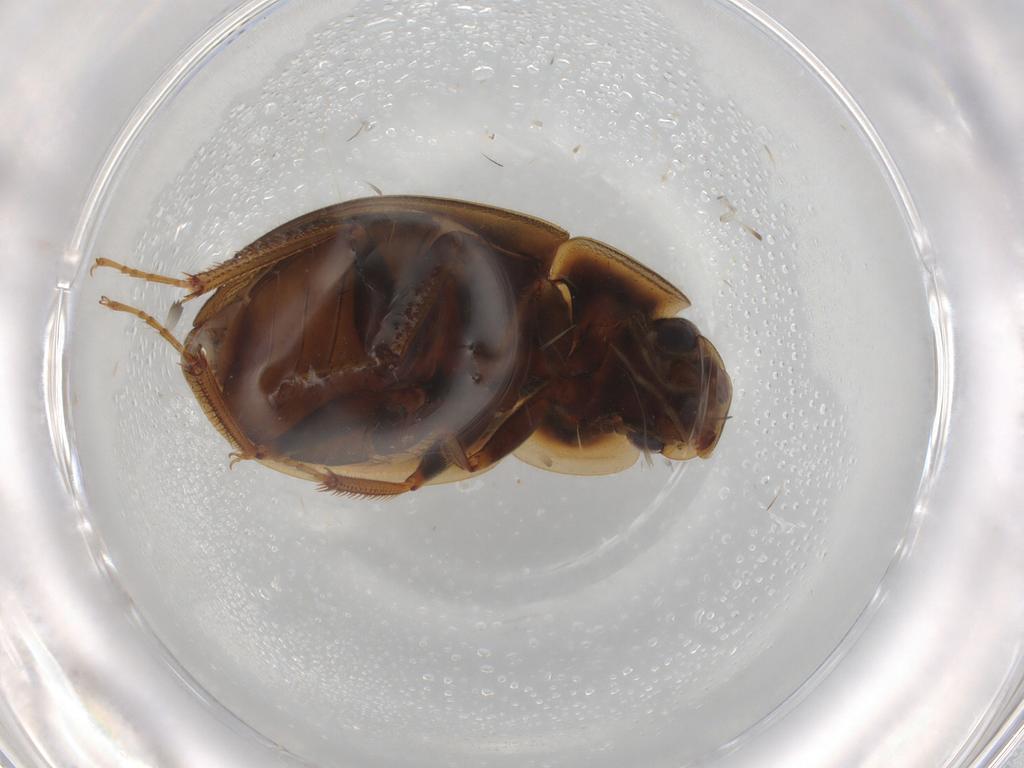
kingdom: Animalia
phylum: Arthropoda
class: Insecta
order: Coleoptera
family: Hydrophilidae
